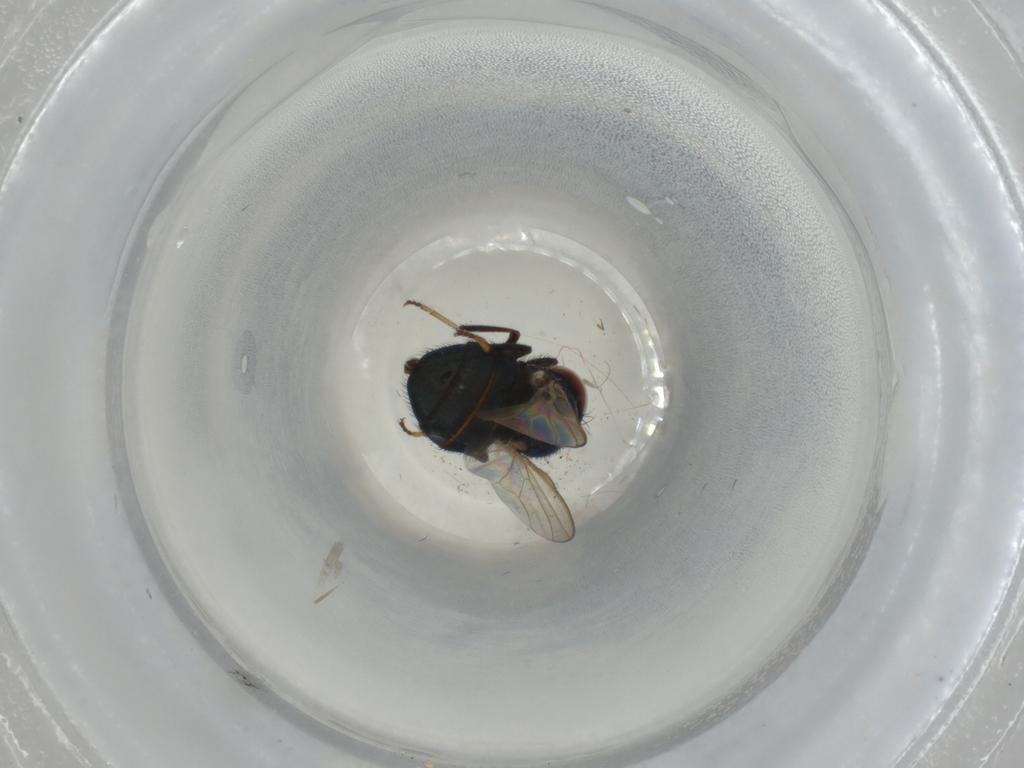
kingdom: Animalia
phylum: Arthropoda
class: Insecta
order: Diptera
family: Lonchaeidae
